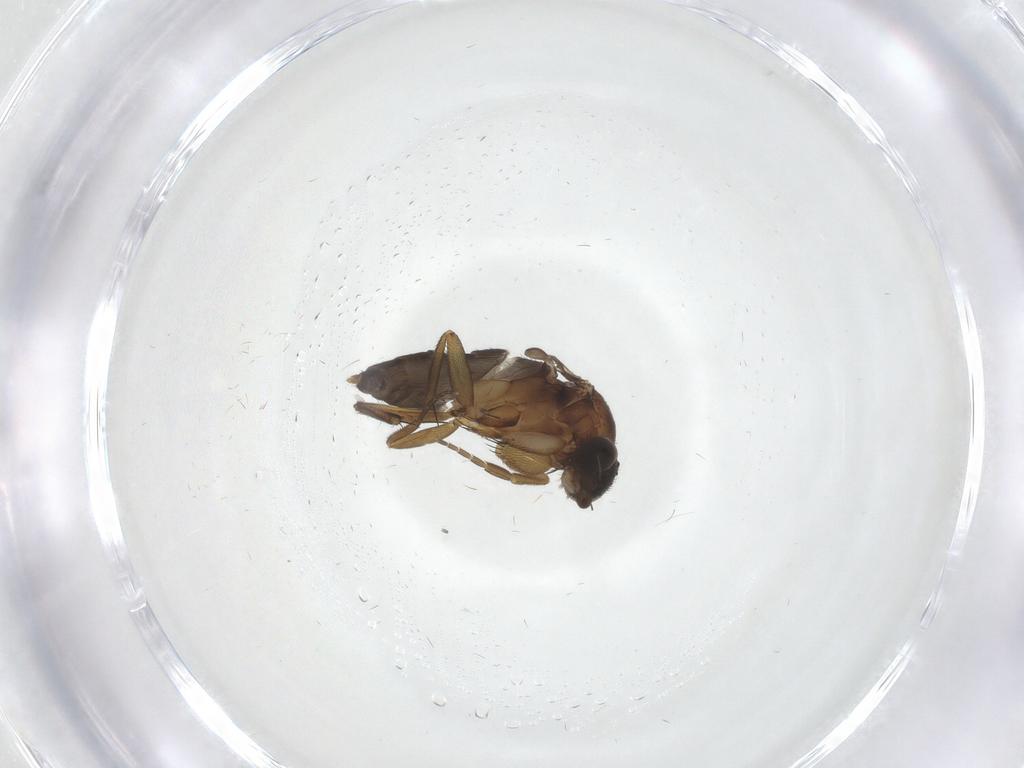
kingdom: Animalia
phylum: Arthropoda
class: Insecta
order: Diptera
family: Phoridae
